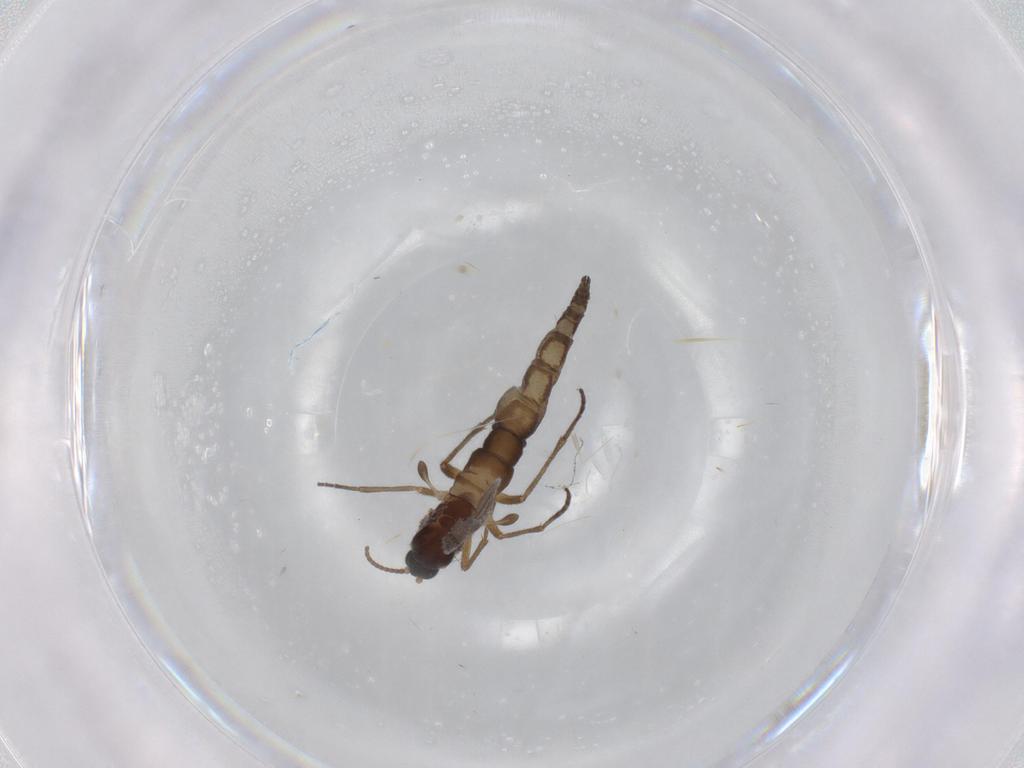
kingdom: Animalia
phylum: Arthropoda
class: Insecta
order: Diptera
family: Sciaridae
